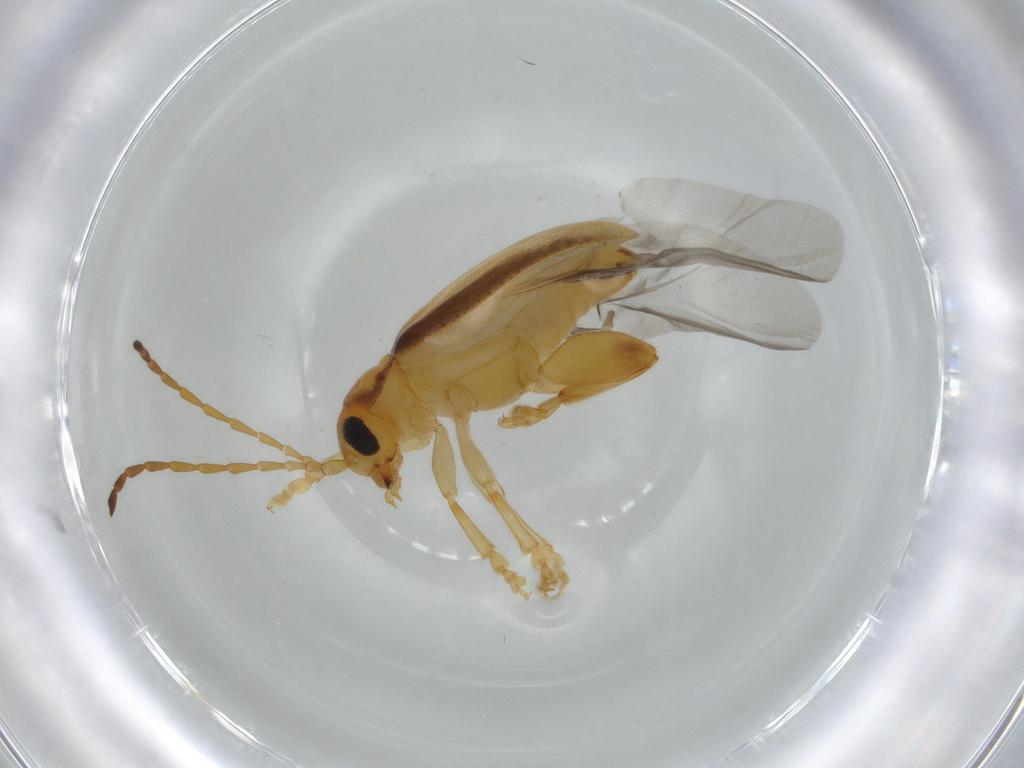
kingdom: Animalia
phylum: Arthropoda
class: Insecta
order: Coleoptera
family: Chrysomelidae
